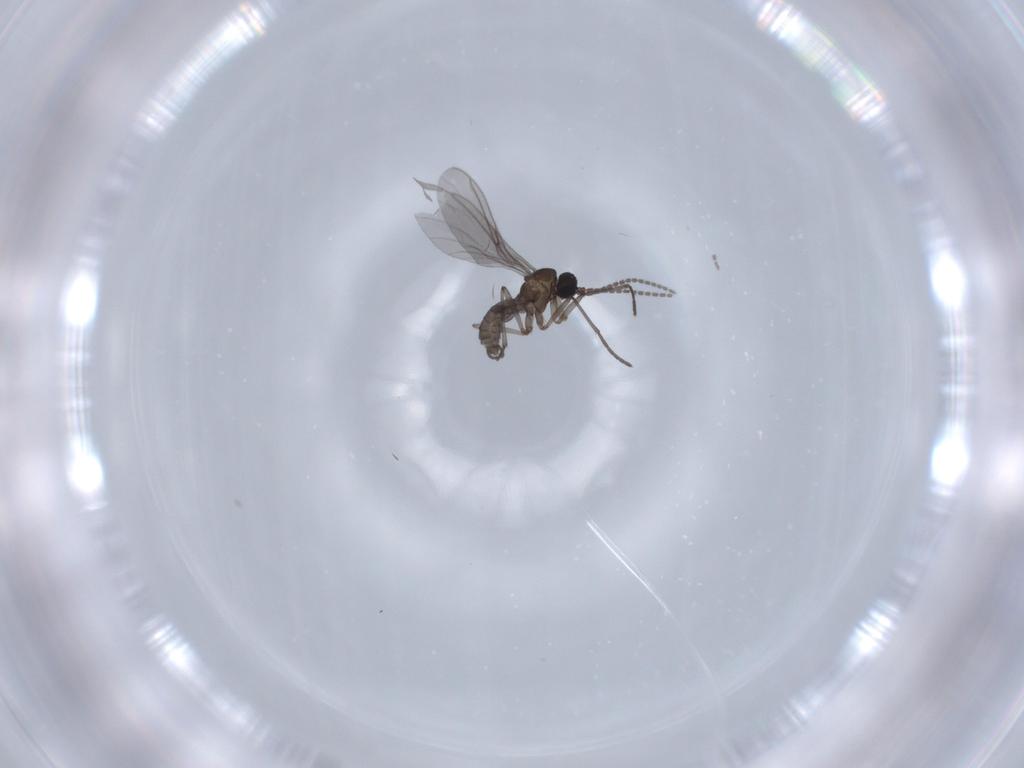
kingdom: Animalia
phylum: Arthropoda
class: Insecta
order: Diptera
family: Sciaridae
